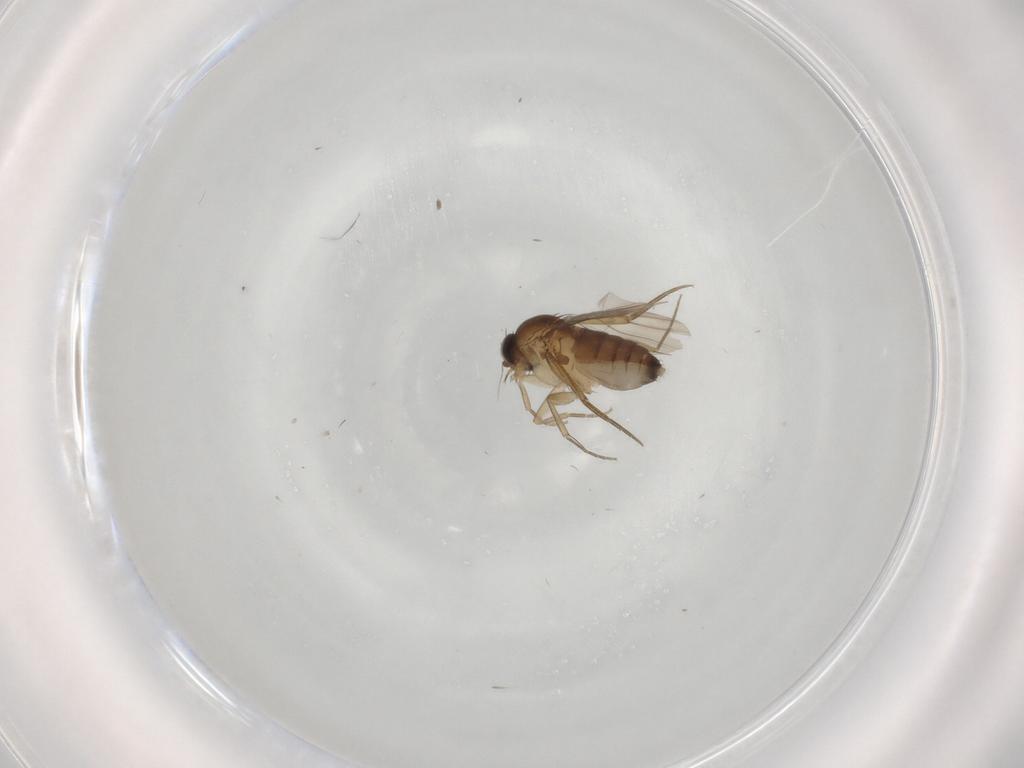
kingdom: Animalia
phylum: Arthropoda
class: Insecta
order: Diptera
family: Phoridae
